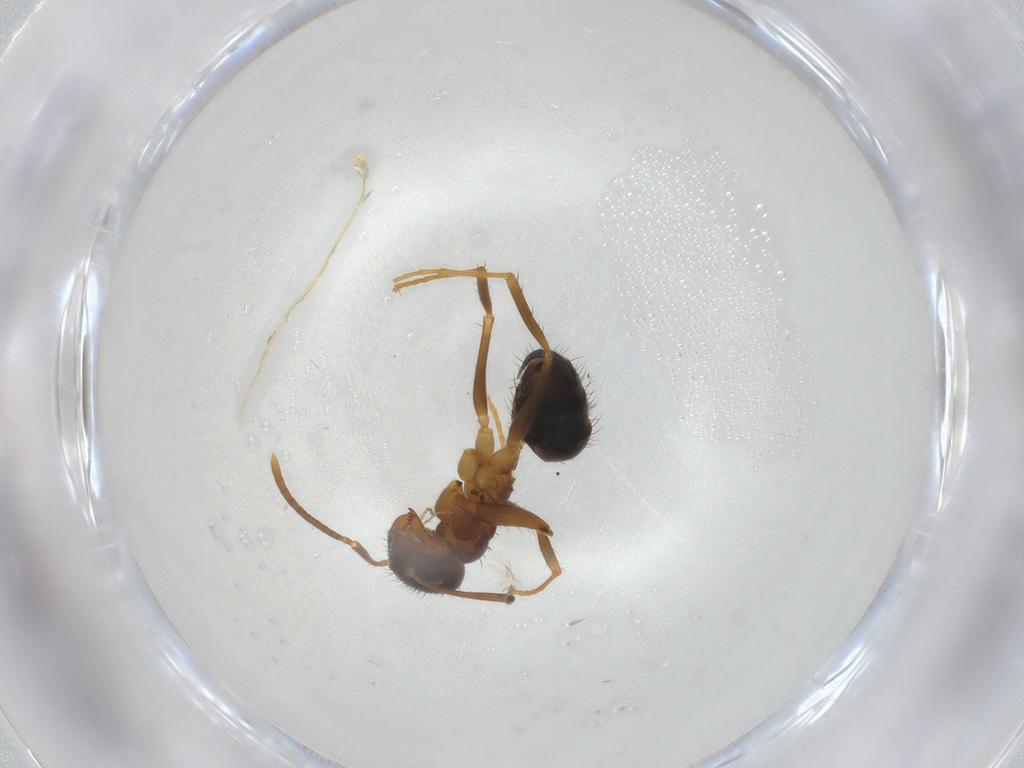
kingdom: Animalia
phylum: Arthropoda
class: Insecta
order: Hymenoptera
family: Formicidae
